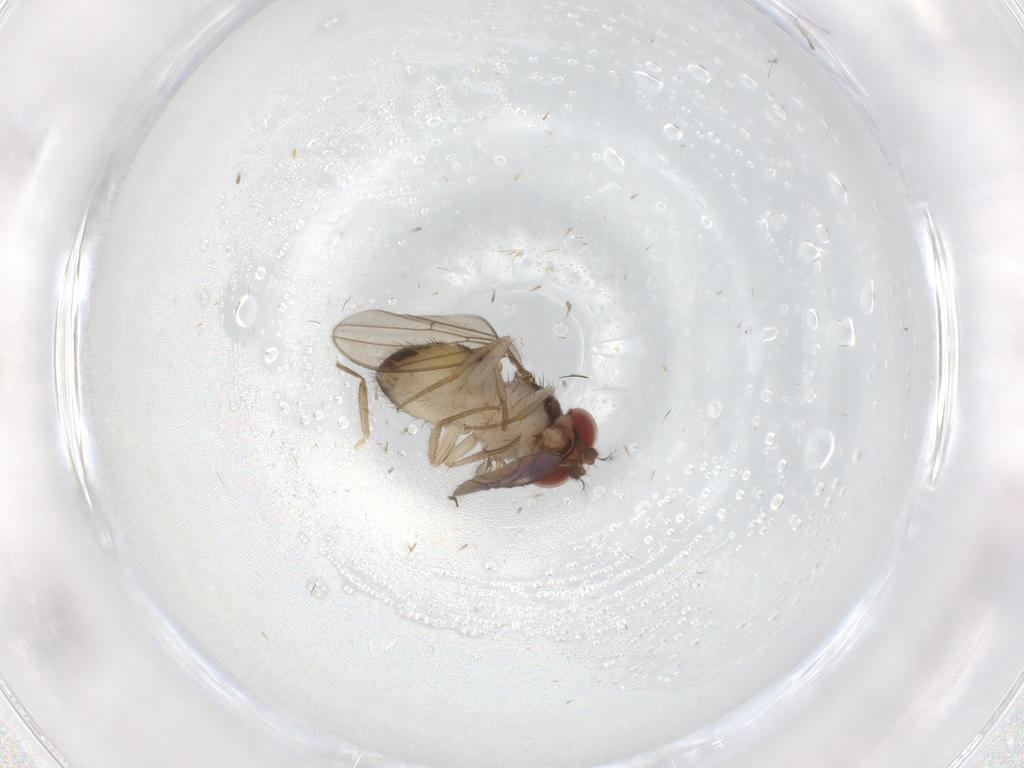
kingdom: Animalia
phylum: Arthropoda
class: Insecta
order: Diptera
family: Drosophilidae
